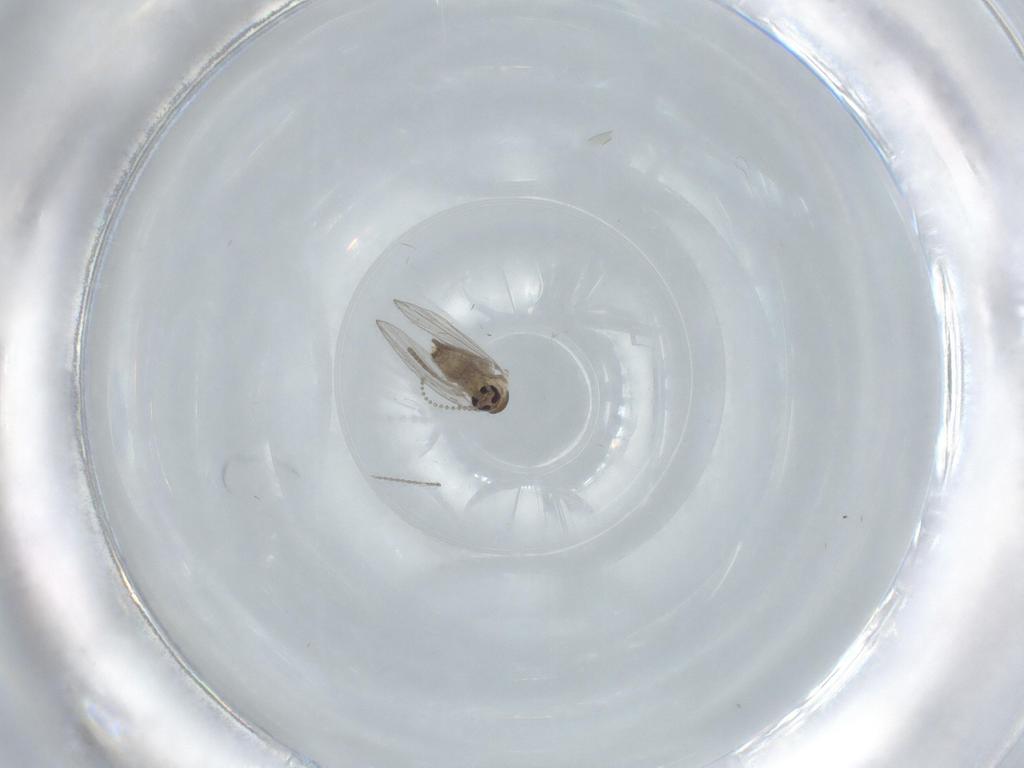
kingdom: Animalia
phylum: Arthropoda
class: Insecta
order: Diptera
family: Psychodidae
